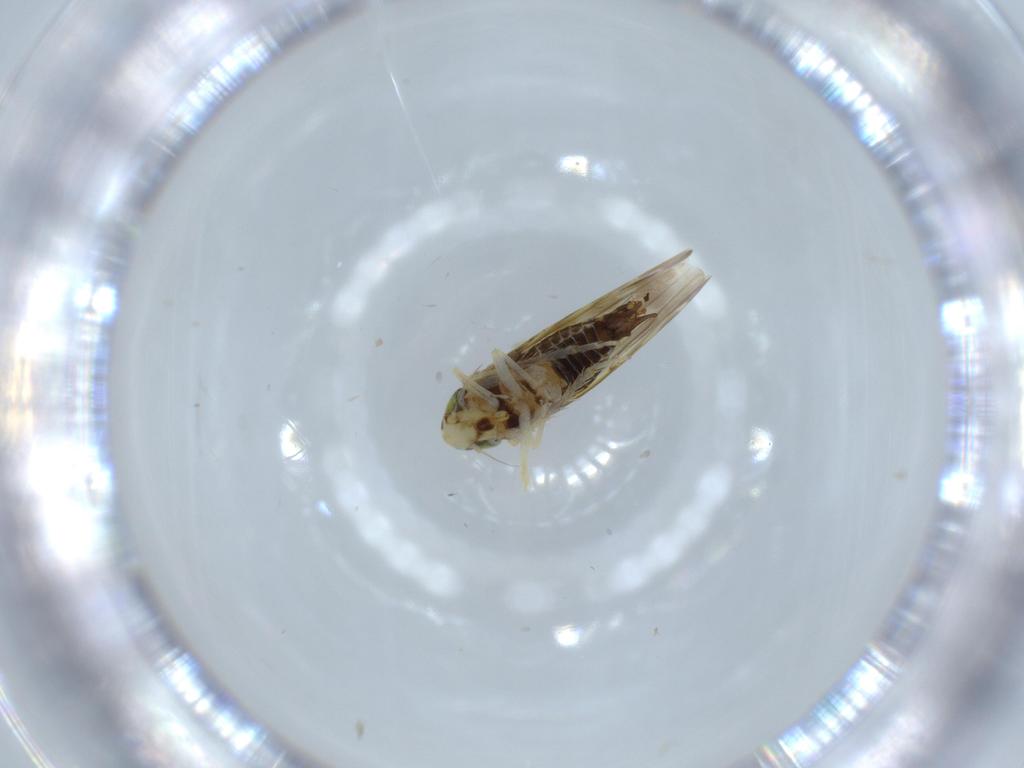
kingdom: Animalia
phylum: Arthropoda
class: Insecta
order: Hemiptera
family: Cicadellidae
